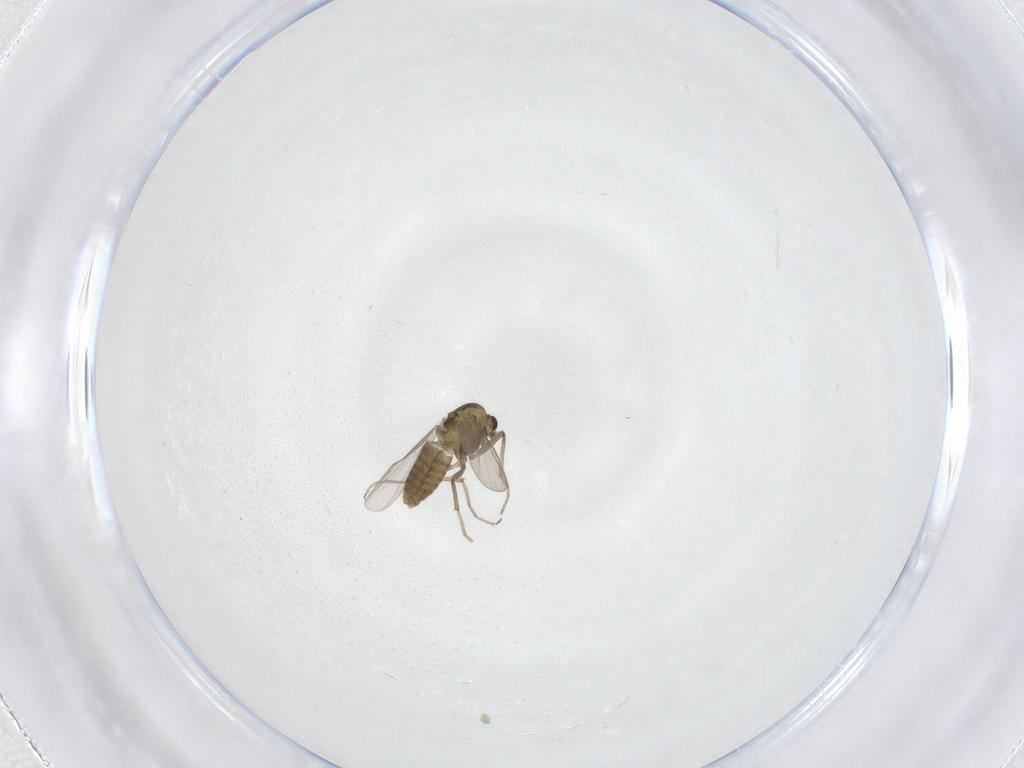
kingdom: Animalia
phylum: Arthropoda
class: Insecta
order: Diptera
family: Chironomidae
